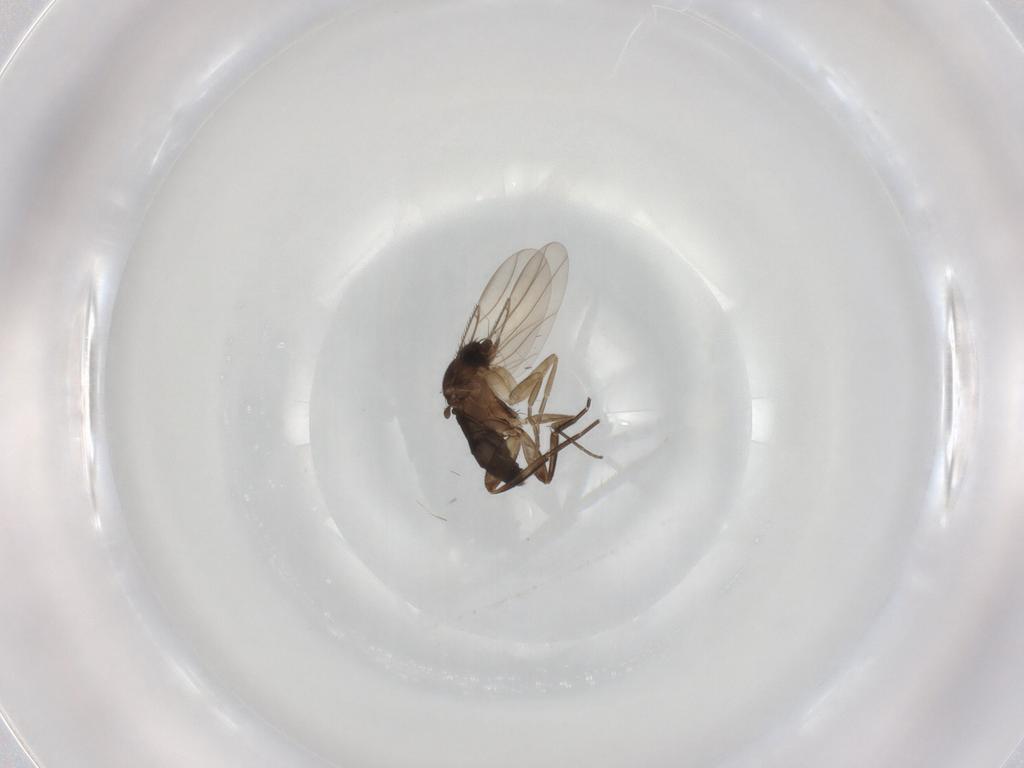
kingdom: Animalia
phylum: Arthropoda
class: Insecta
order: Diptera
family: Phoridae
